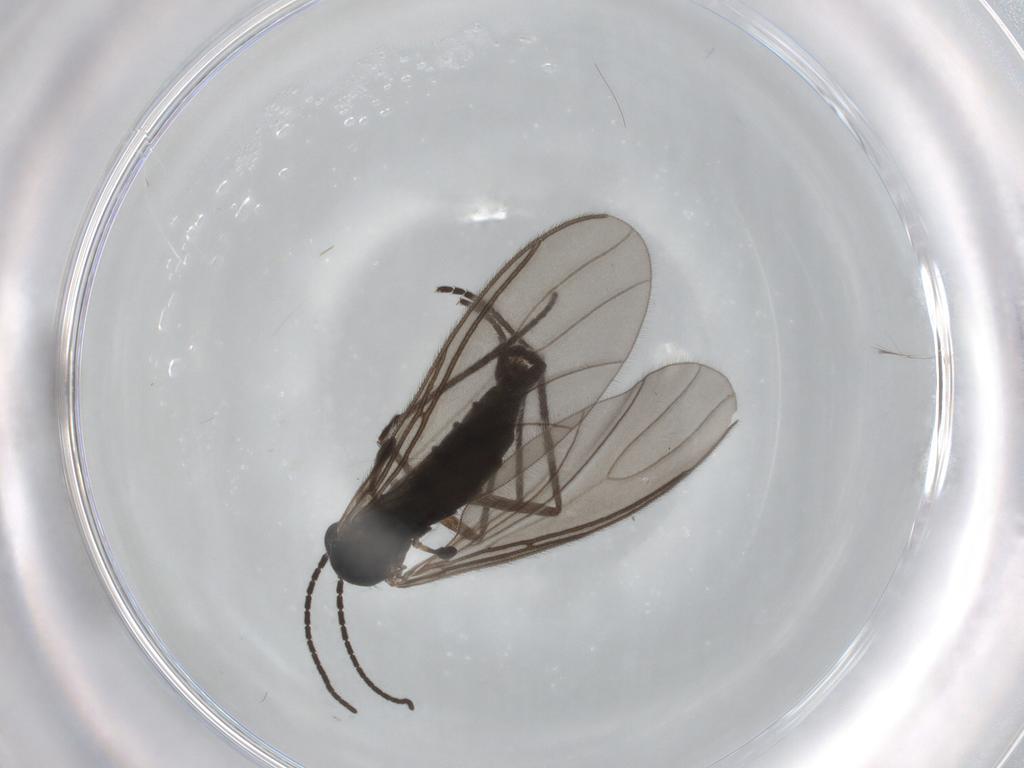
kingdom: Animalia
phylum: Arthropoda
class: Insecta
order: Diptera
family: Sciaridae
